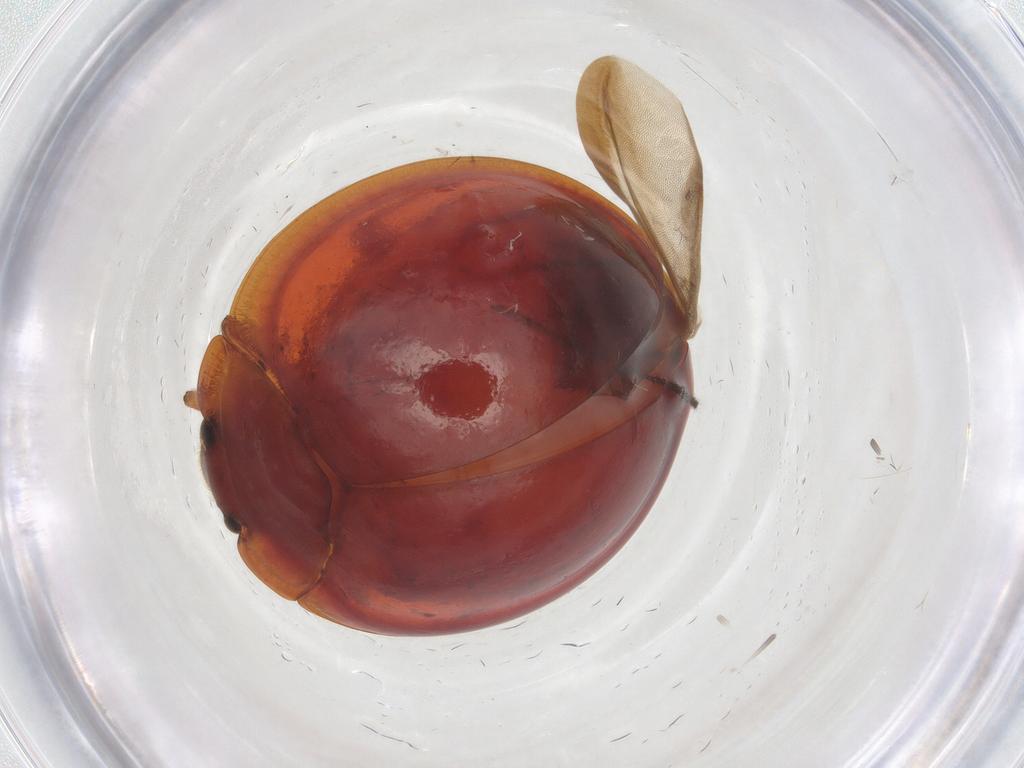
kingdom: Animalia
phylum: Arthropoda
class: Insecta
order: Coleoptera
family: Anamorphidae
